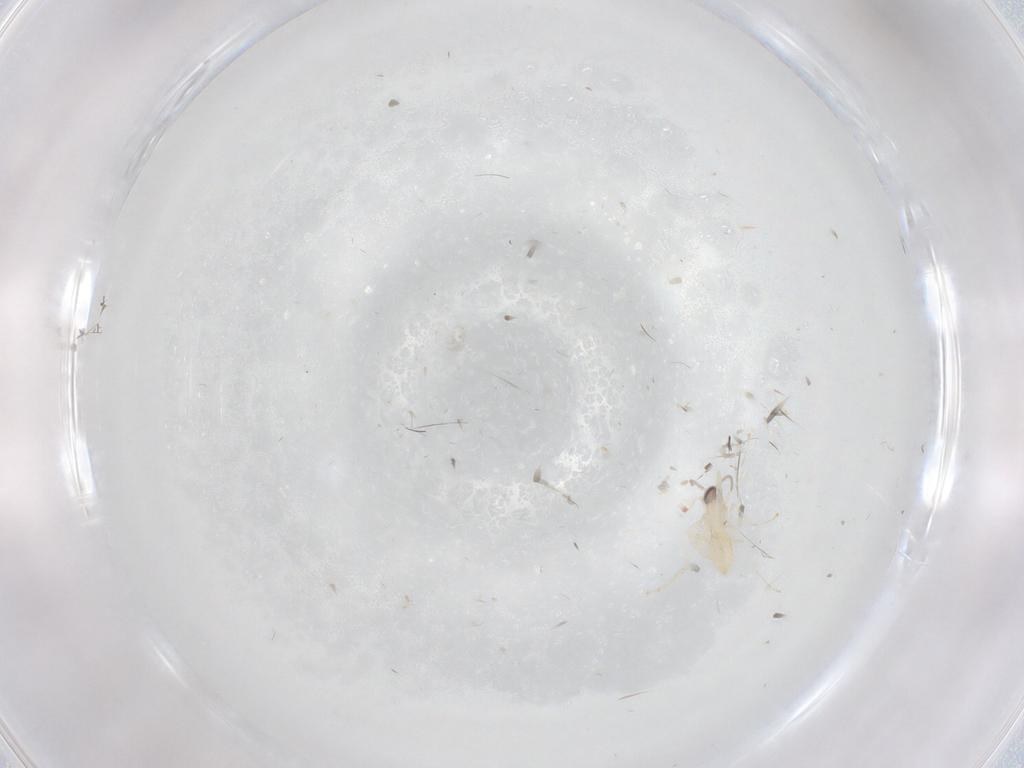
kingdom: Animalia
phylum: Arthropoda
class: Insecta
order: Diptera
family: Cecidomyiidae
